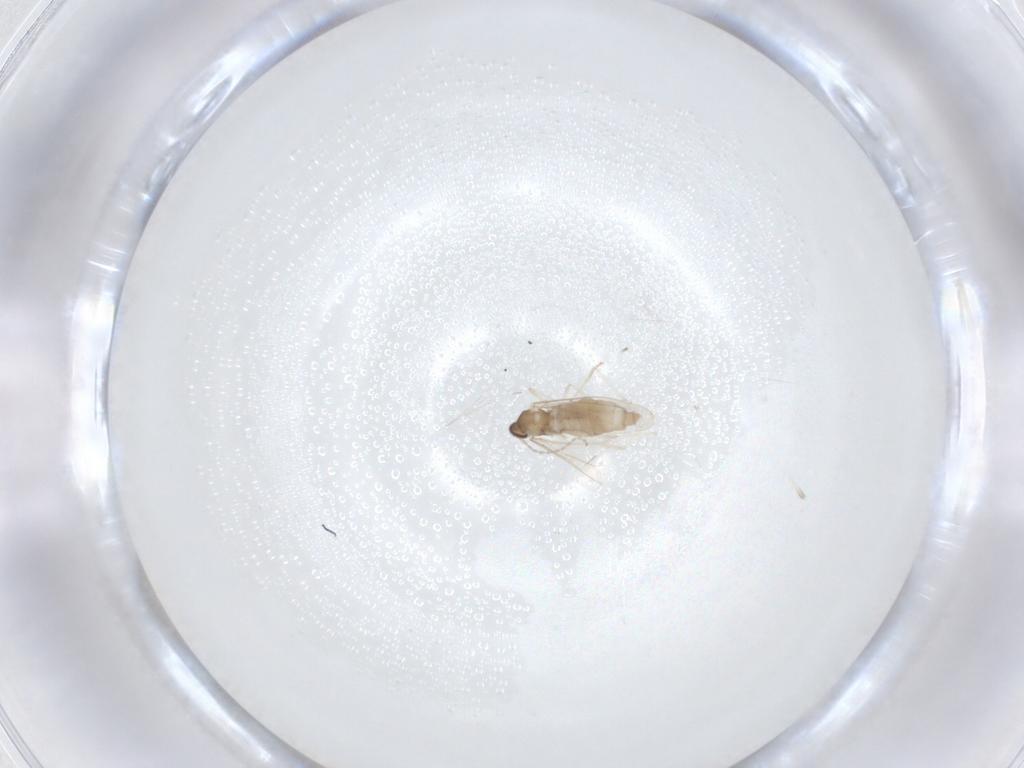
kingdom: Animalia
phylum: Arthropoda
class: Insecta
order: Diptera
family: Cecidomyiidae
